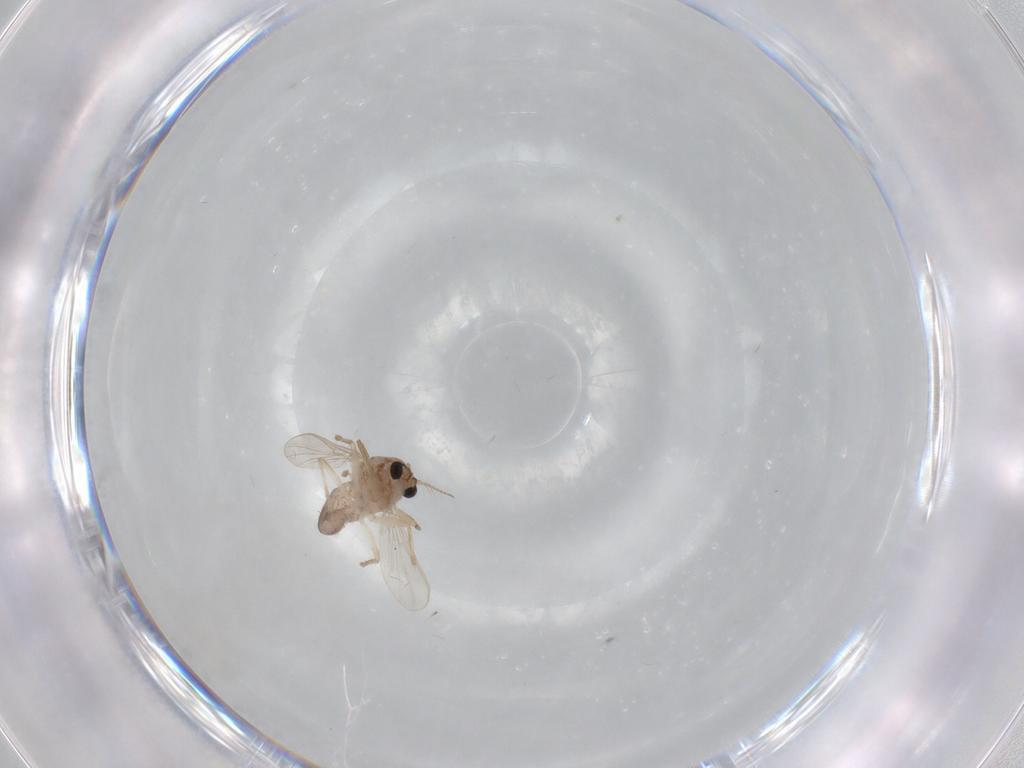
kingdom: Animalia
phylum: Arthropoda
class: Insecta
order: Diptera
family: Chironomidae
